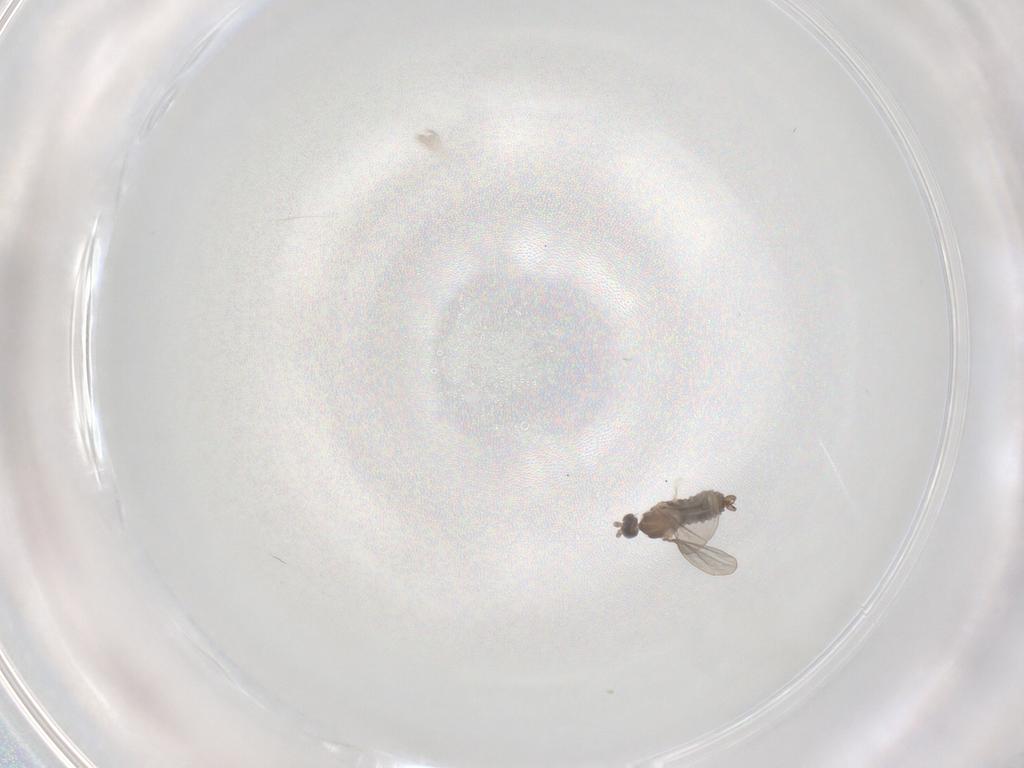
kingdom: Animalia
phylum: Arthropoda
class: Insecta
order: Diptera
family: Cecidomyiidae
